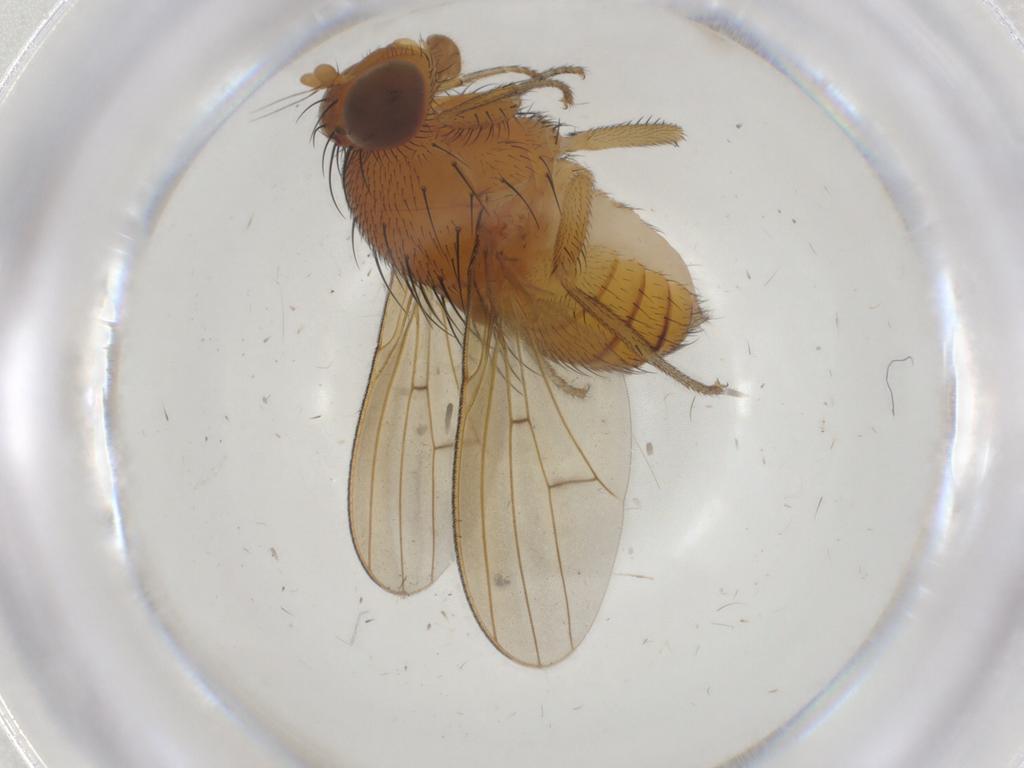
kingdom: Animalia
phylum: Arthropoda
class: Insecta
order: Diptera
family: Cecidomyiidae
